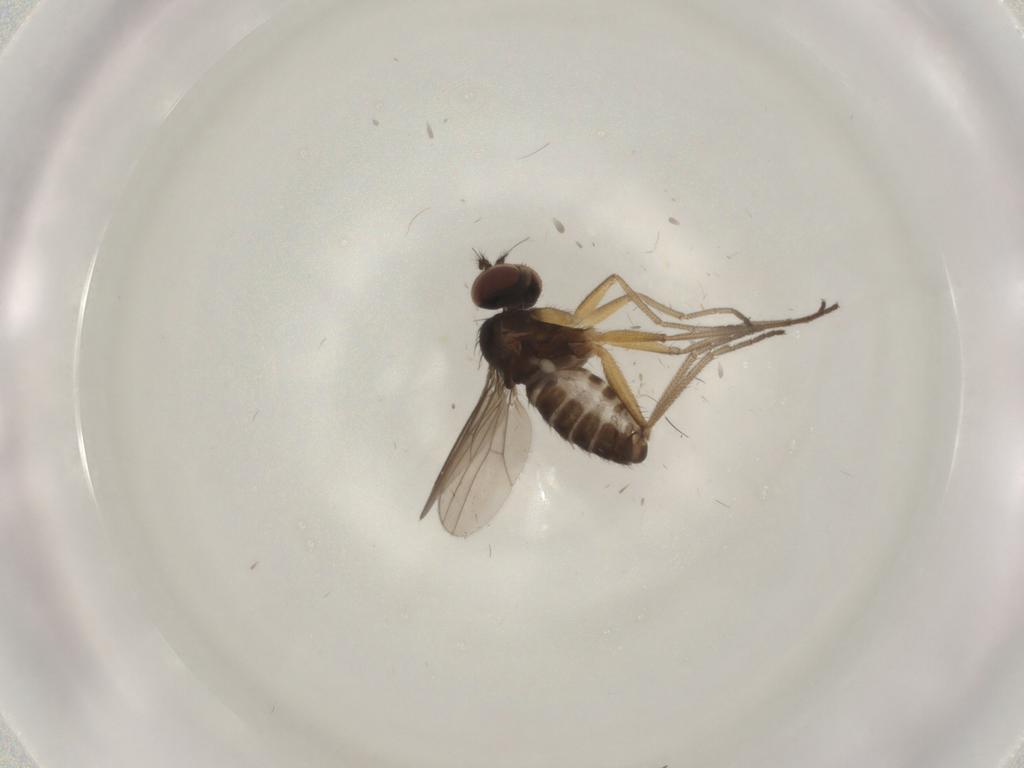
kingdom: Animalia
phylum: Arthropoda
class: Insecta
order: Diptera
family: Dolichopodidae
